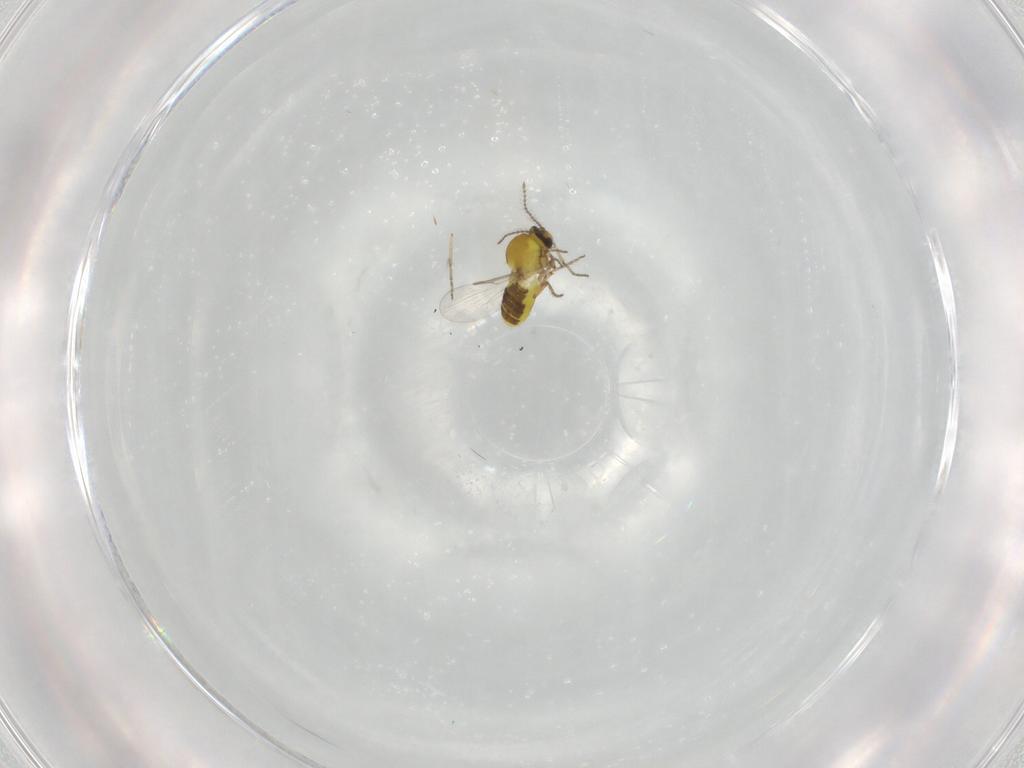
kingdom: Animalia
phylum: Arthropoda
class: Insecta
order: Diptera
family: Ceratopogonidae
